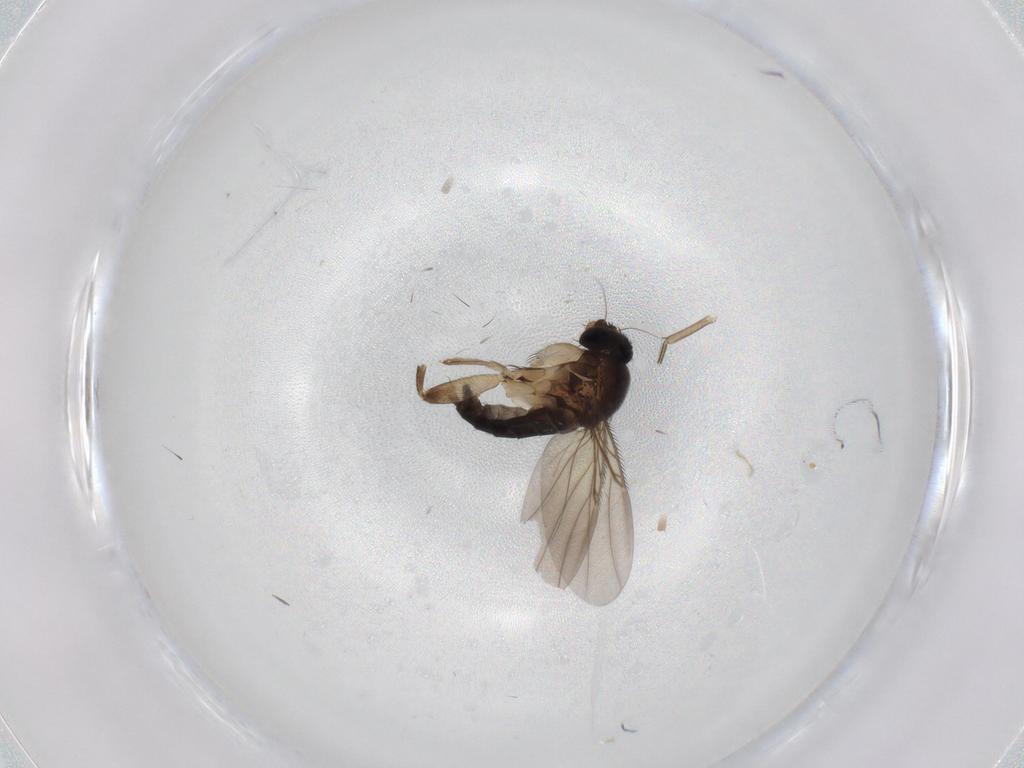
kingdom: Animalia
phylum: Arthropoda
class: Insecta
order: Diptera
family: Phoridae
